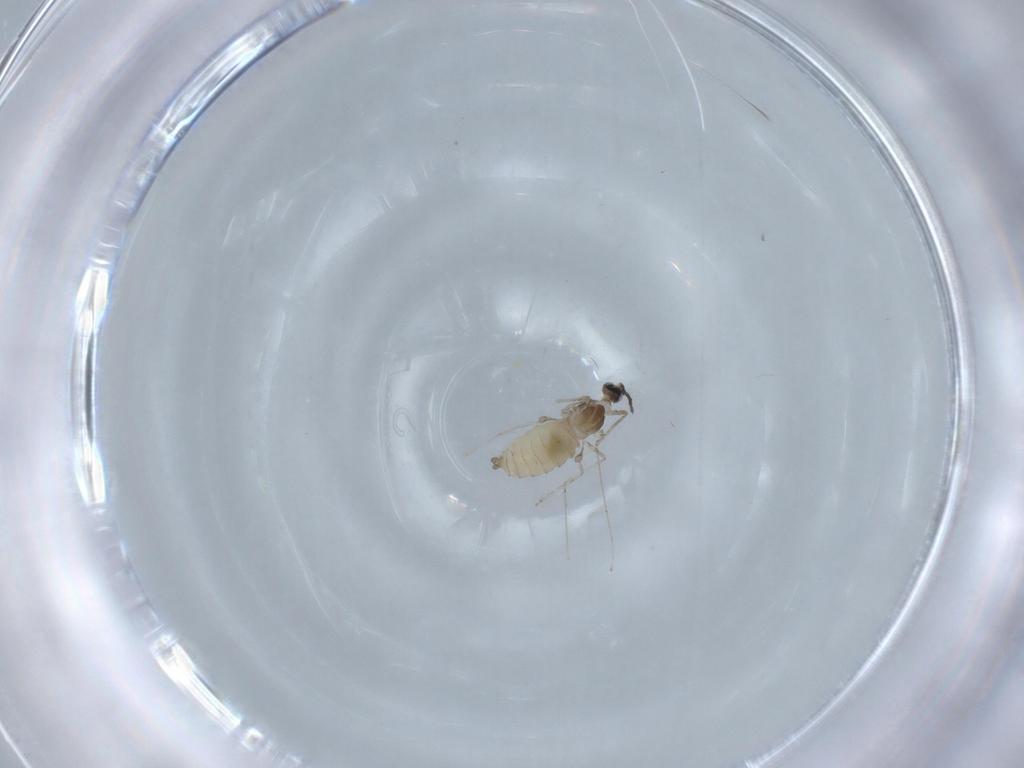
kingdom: Animalia
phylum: Arthropoda
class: Insecta
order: Diptera
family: Cecidomyiidae
